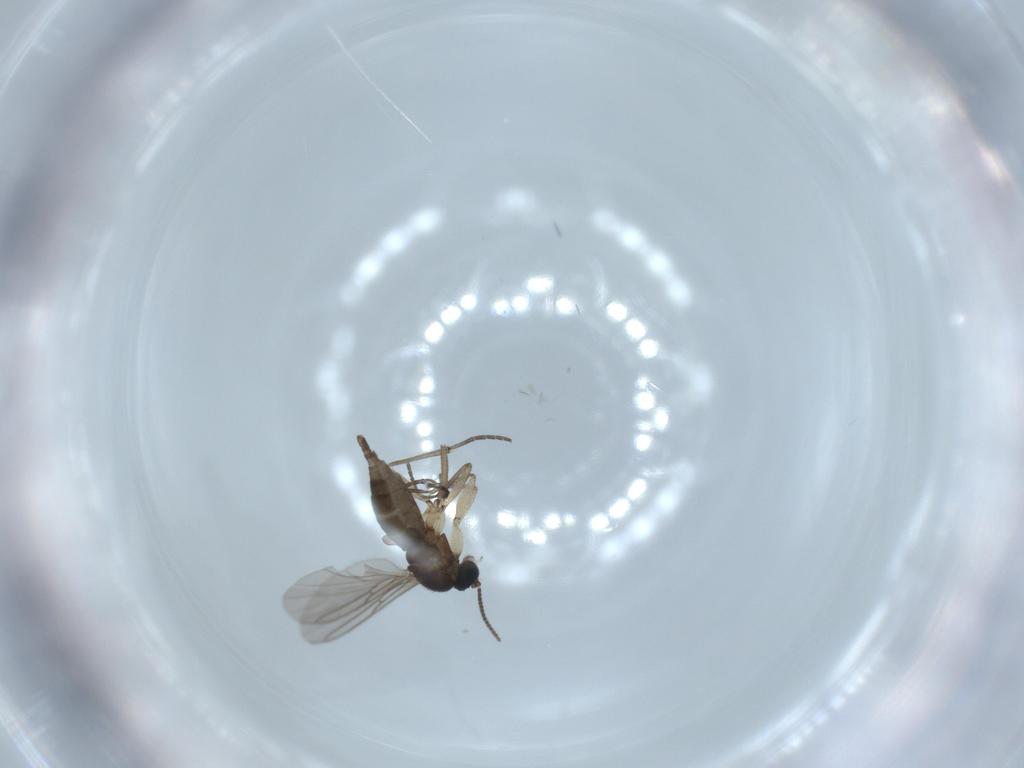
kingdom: Animalia
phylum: Arthropoda
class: Insecta
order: Diptera
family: Sciaridae
